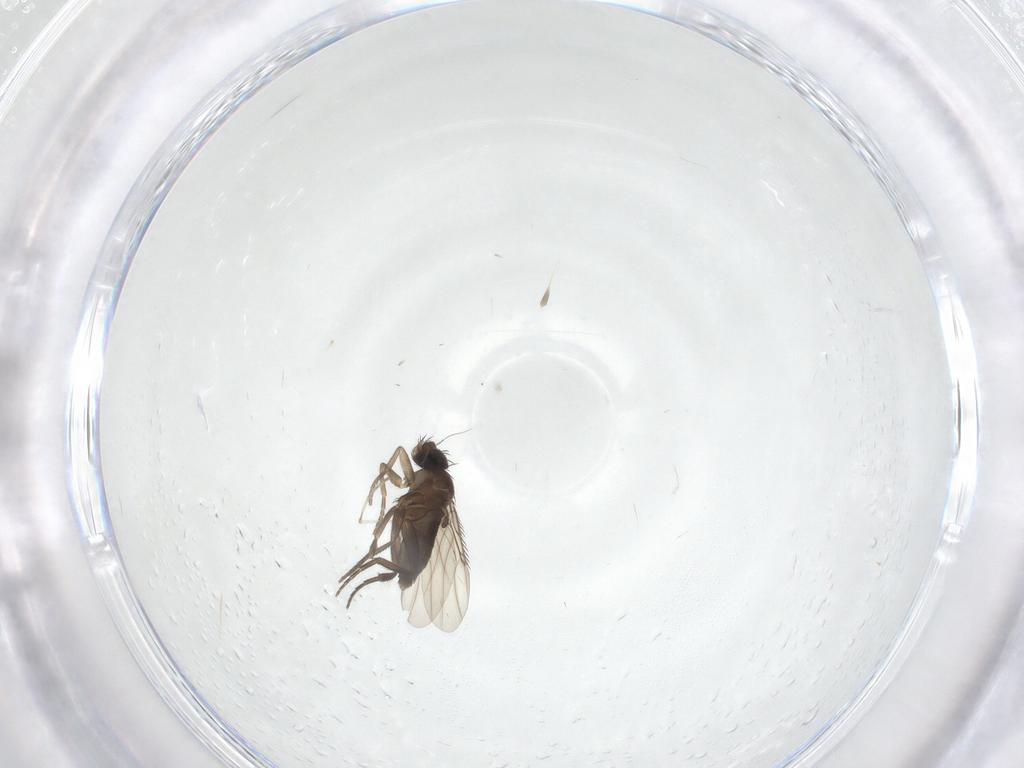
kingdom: Animalia
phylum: Arthropoda
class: Insecta
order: Diptera
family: Phoridae
